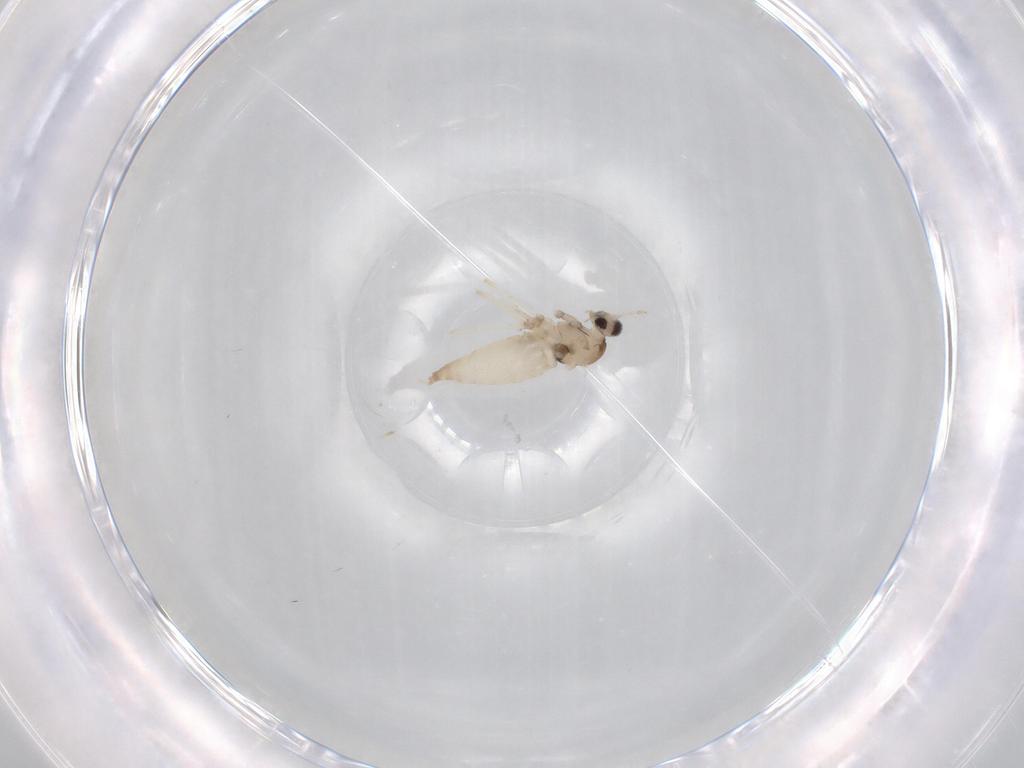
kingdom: Animalia
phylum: Arthropoda
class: Insecta
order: Diptera
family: Cecidomyiidae
